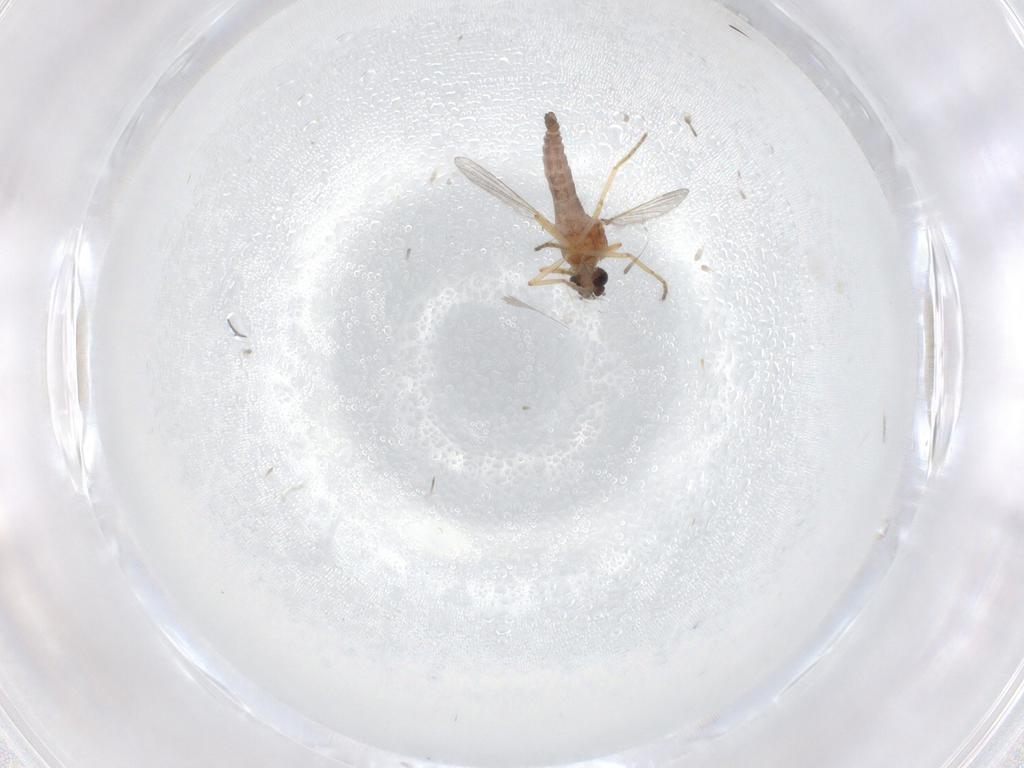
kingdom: Animalia
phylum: Arthropoda
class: Insecta
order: Diptera
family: Ceratopogonidae
